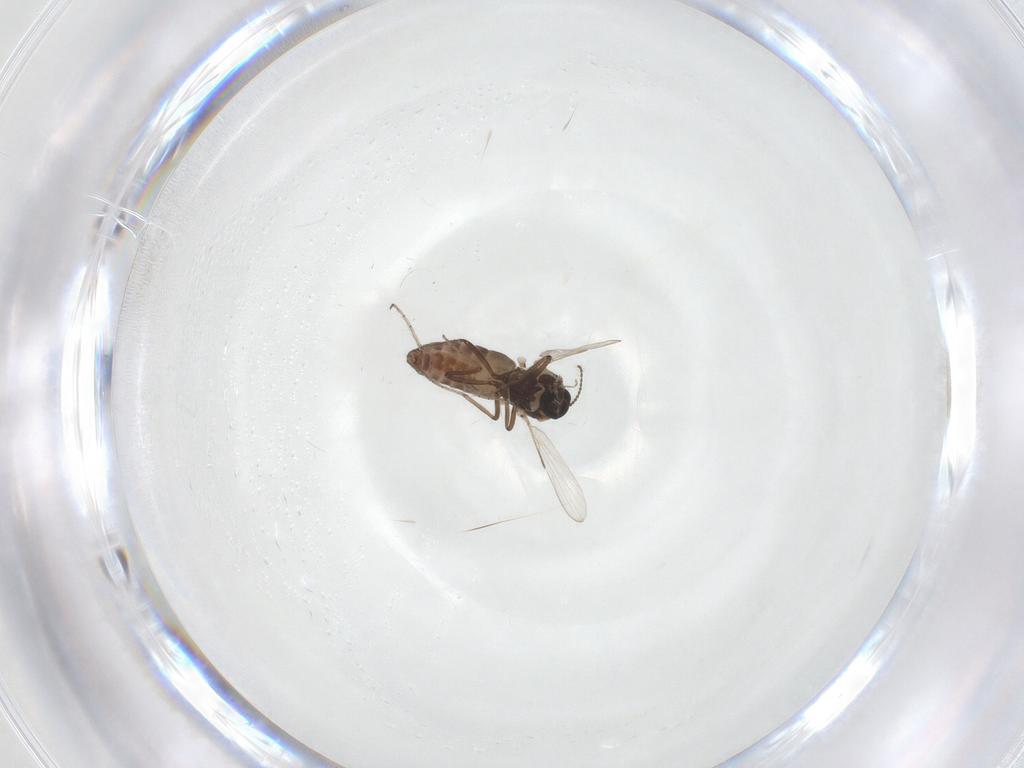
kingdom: Animalia
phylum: Arthropoda
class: Insecta
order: Diptera
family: Ceratopogonidae
